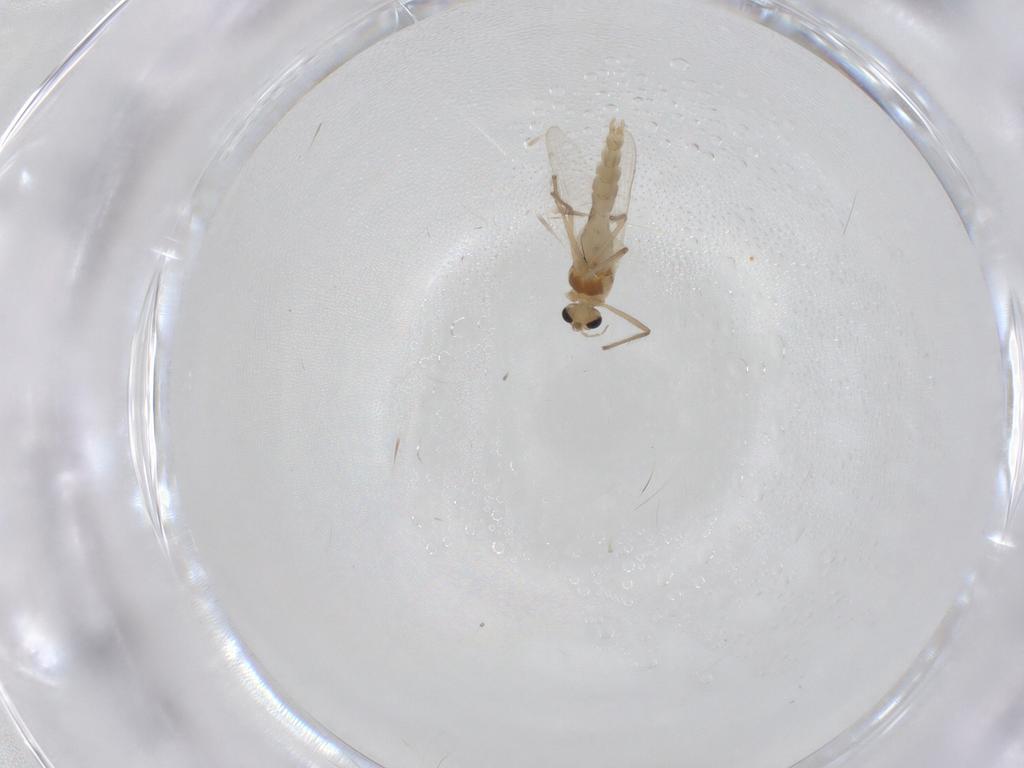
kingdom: Animalia
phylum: Arthropoda
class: Insecta
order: Diptera
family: Chironomidae
